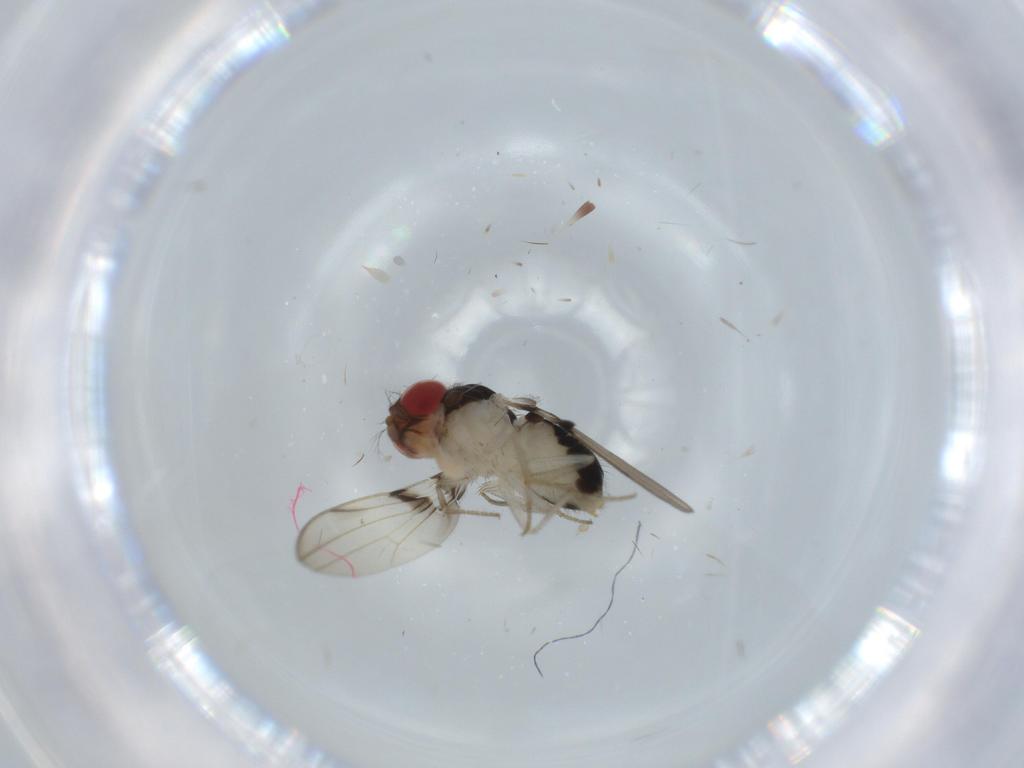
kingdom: Animalia
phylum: Arthropoda
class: Insecta
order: Diptera
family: Drosophilidae
